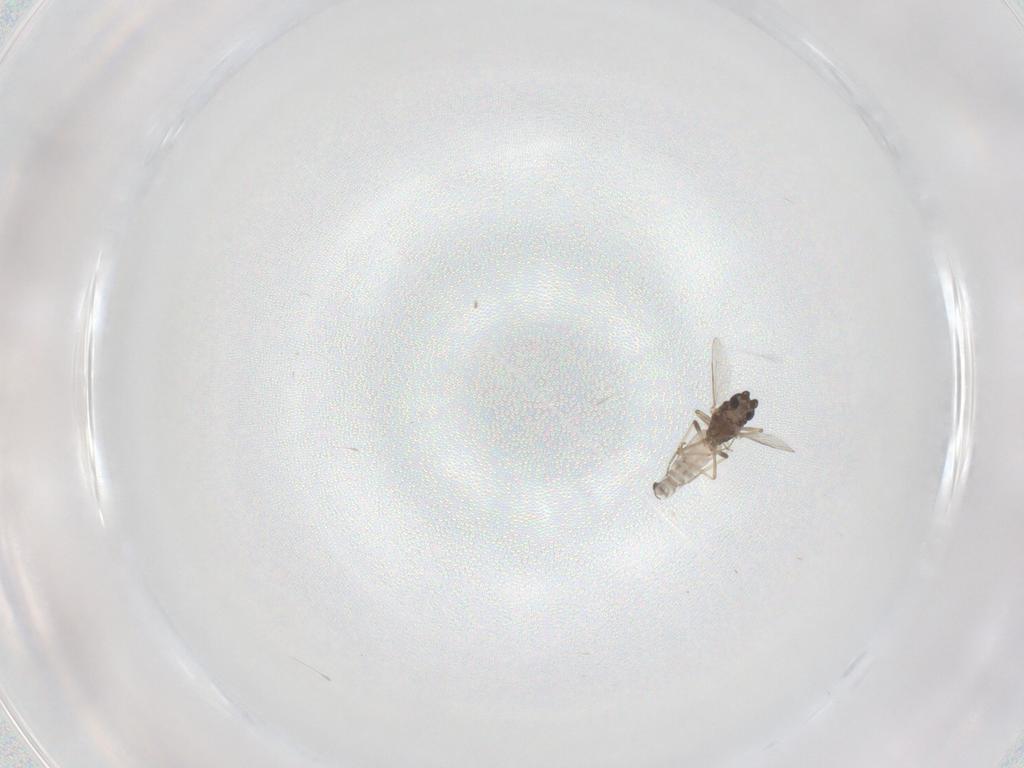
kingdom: Animalia
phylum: Arthropoda
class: Insecta
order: Diptera
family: Ceratopogonidae
